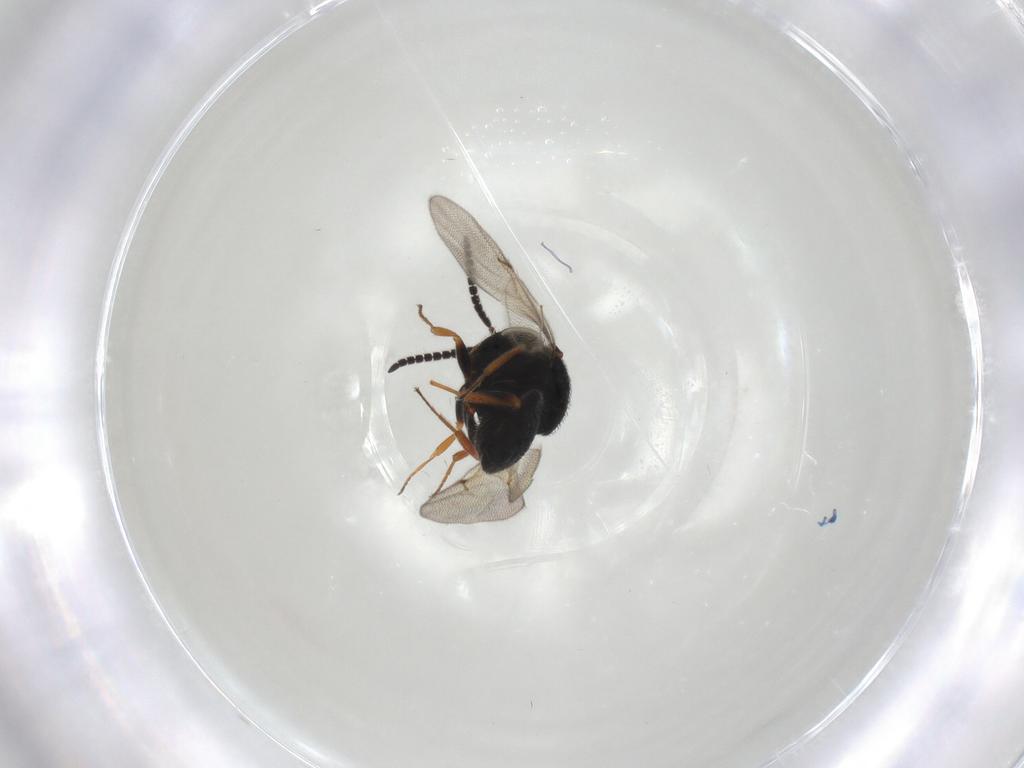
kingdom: Animalia
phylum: Arthropoda
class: Insecta
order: Hymenoptera
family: Scelionidae
